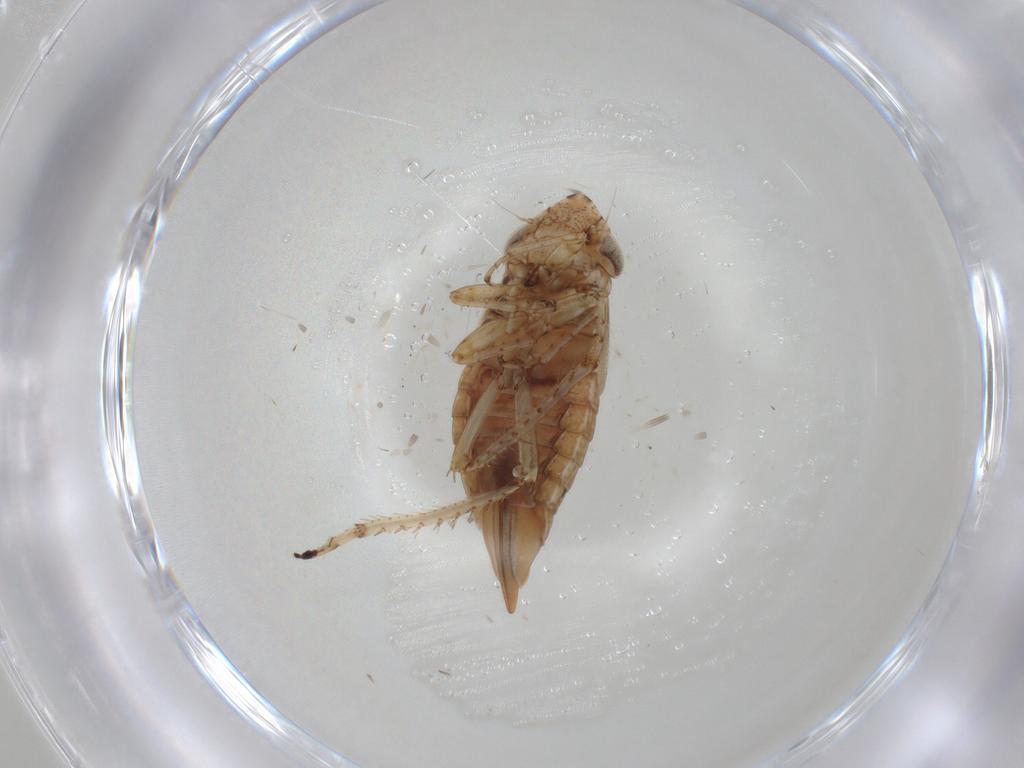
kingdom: Animalia
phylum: Arthropoda
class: Insecta
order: Hemiptera
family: Cicadellidae
